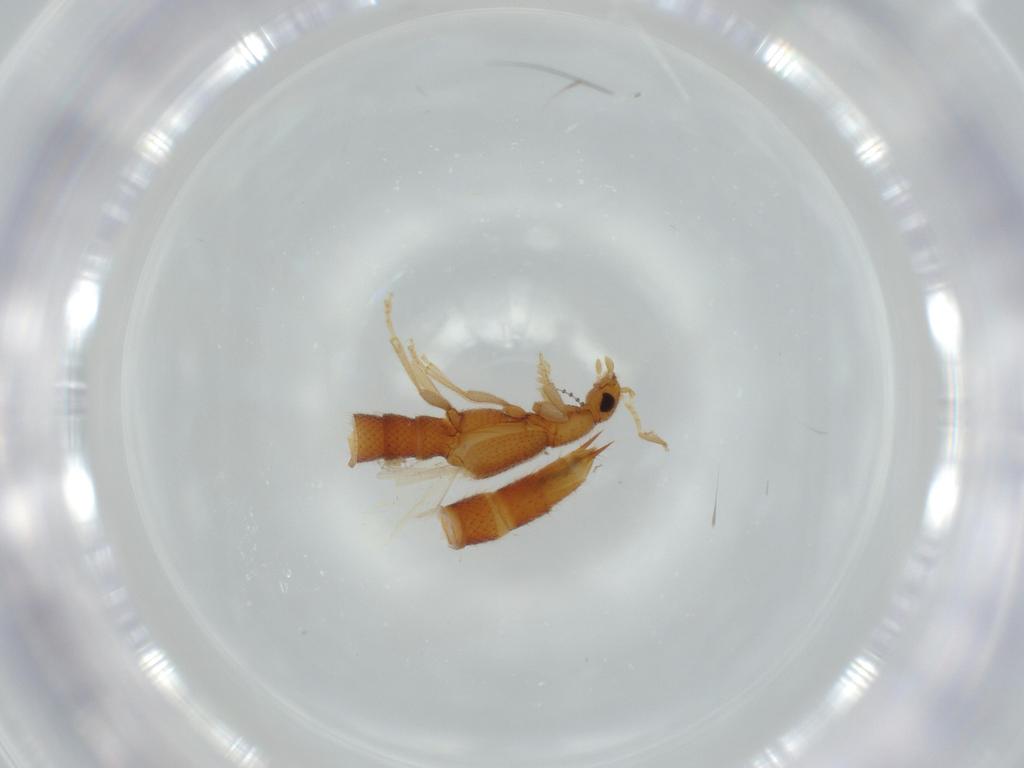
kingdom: Animalia
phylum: Arthropoda
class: Insecta
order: Coleoptera
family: Staphylinidae
